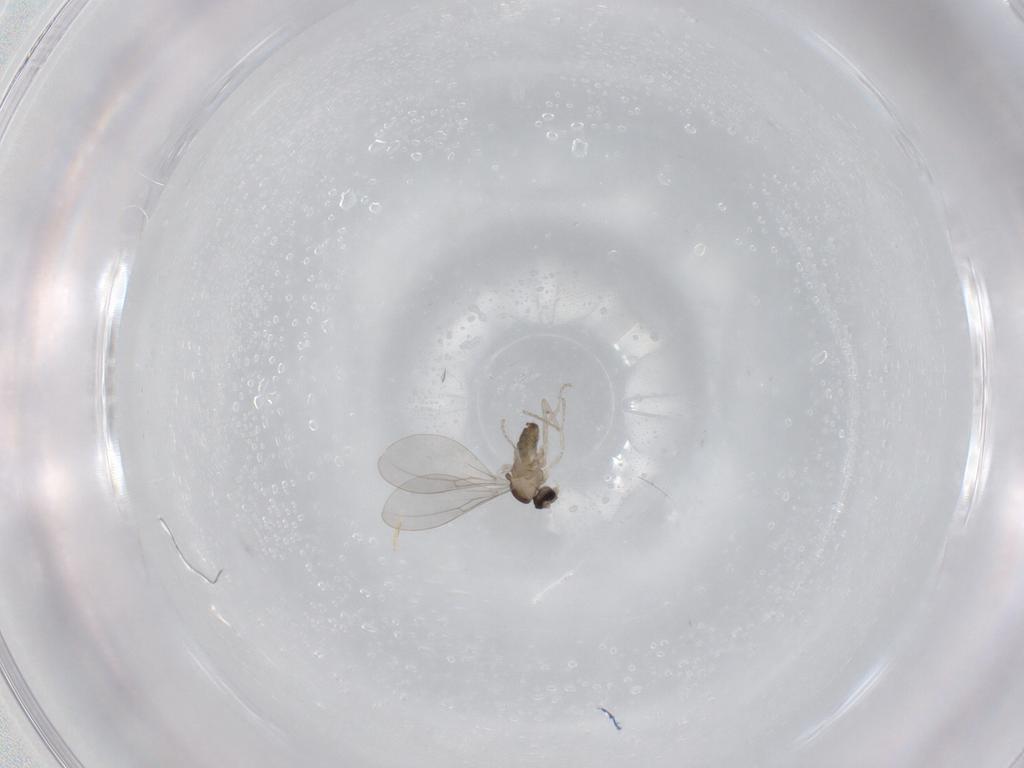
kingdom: Animalia
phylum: Arthropoda
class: Insecta
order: Diptera
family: Cecidomyiidae
